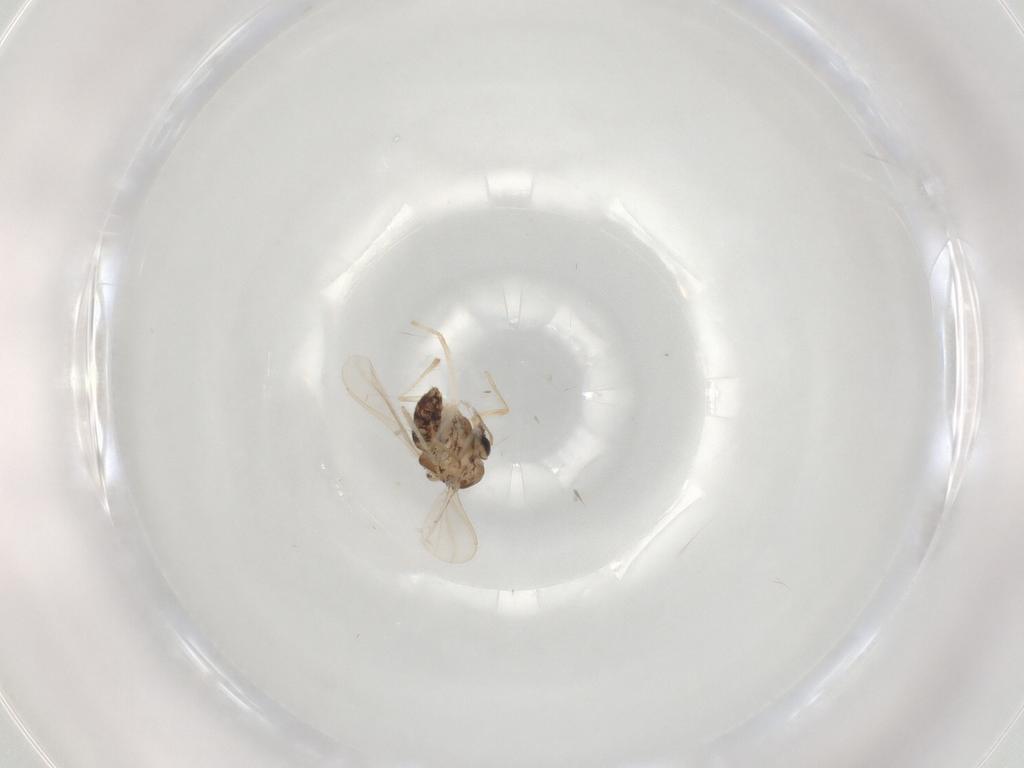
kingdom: Animalia
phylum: Arthropoda
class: Insecta
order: Diptera
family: Chironomidae
